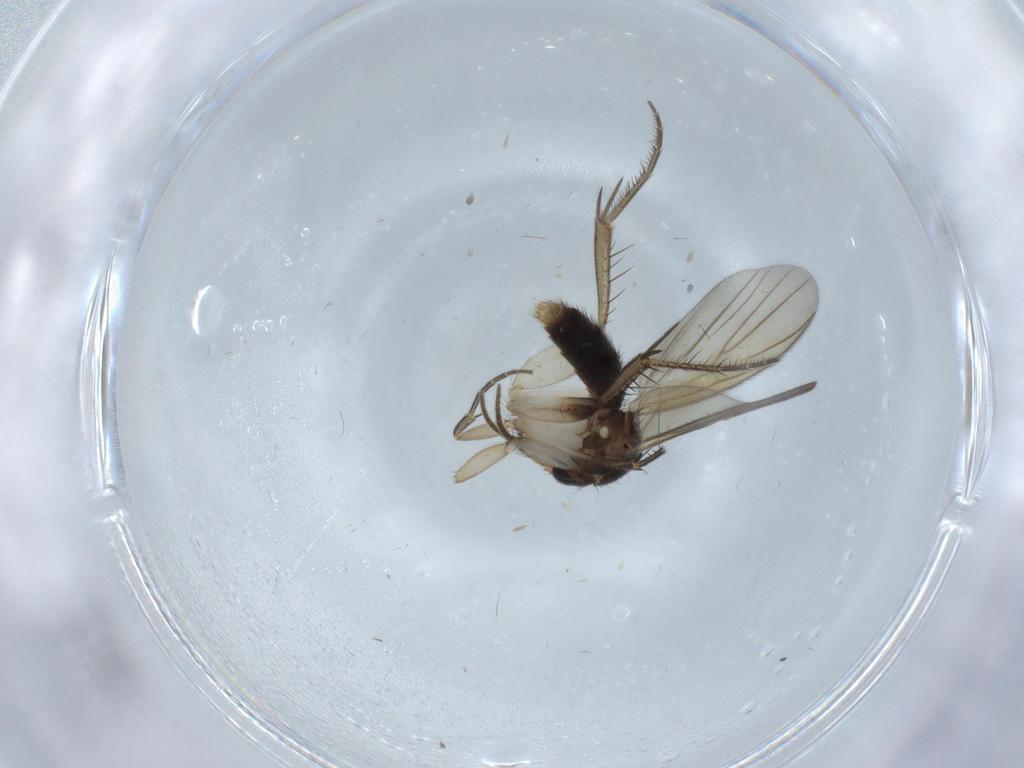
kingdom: Animalia
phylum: Arthropoda
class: Insecta
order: Diptera
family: Mycetophilidae
